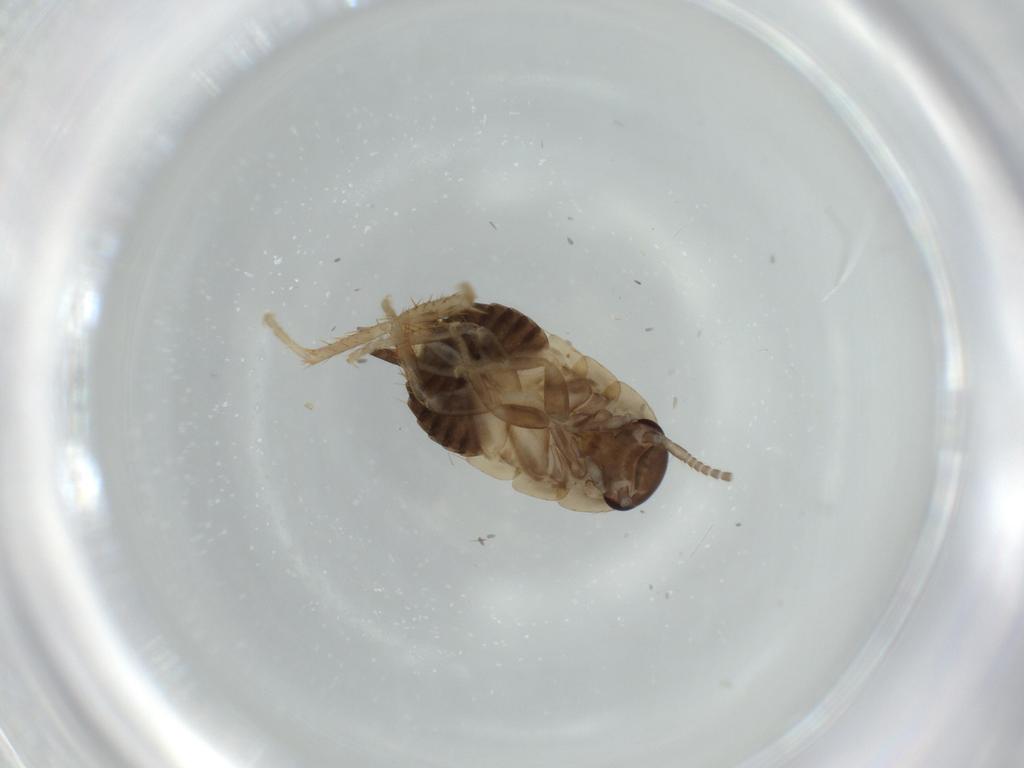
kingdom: Animalia
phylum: Arthropoda
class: Insecta
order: Blattodea
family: Ectobiidae
